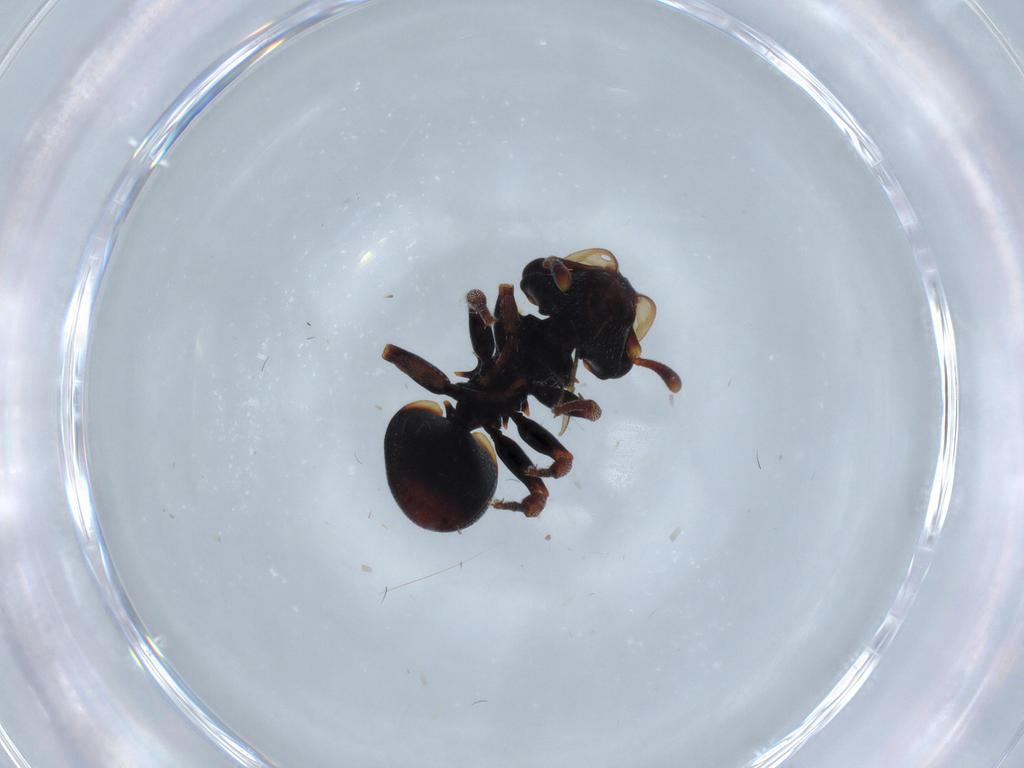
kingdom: Animalia
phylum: Arthropoda
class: Insecta
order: Hymenoptera
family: Formicidae
